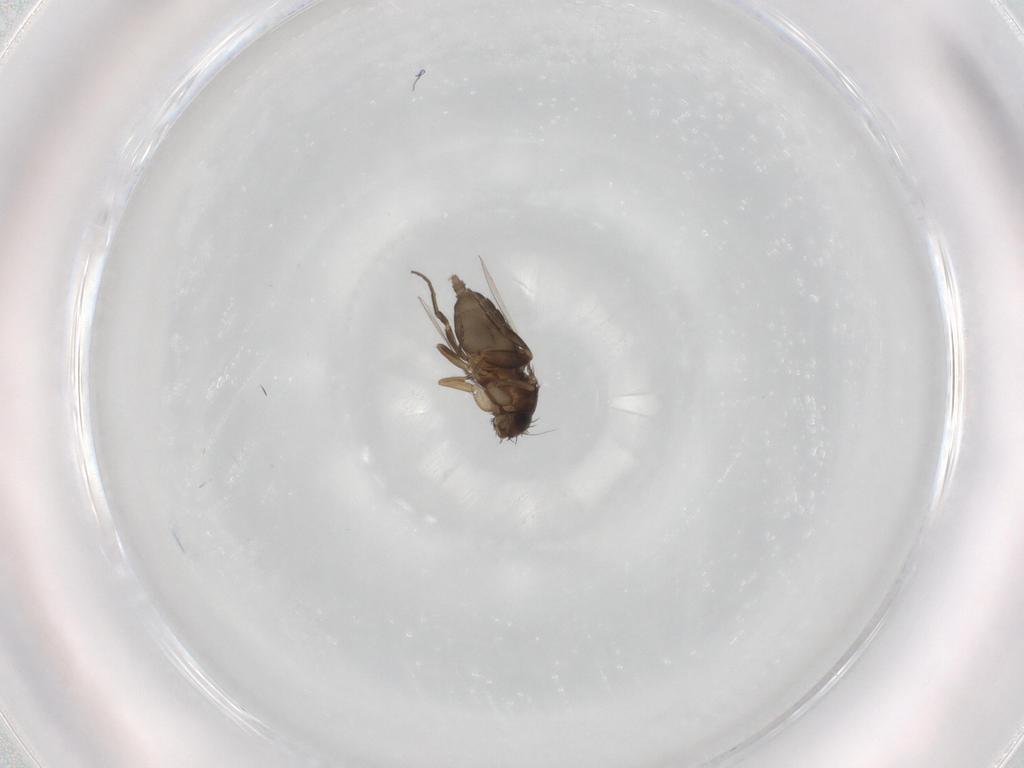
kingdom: Animalia
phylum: Arthropoda
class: Insecta
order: Diptera
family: Phoridae
